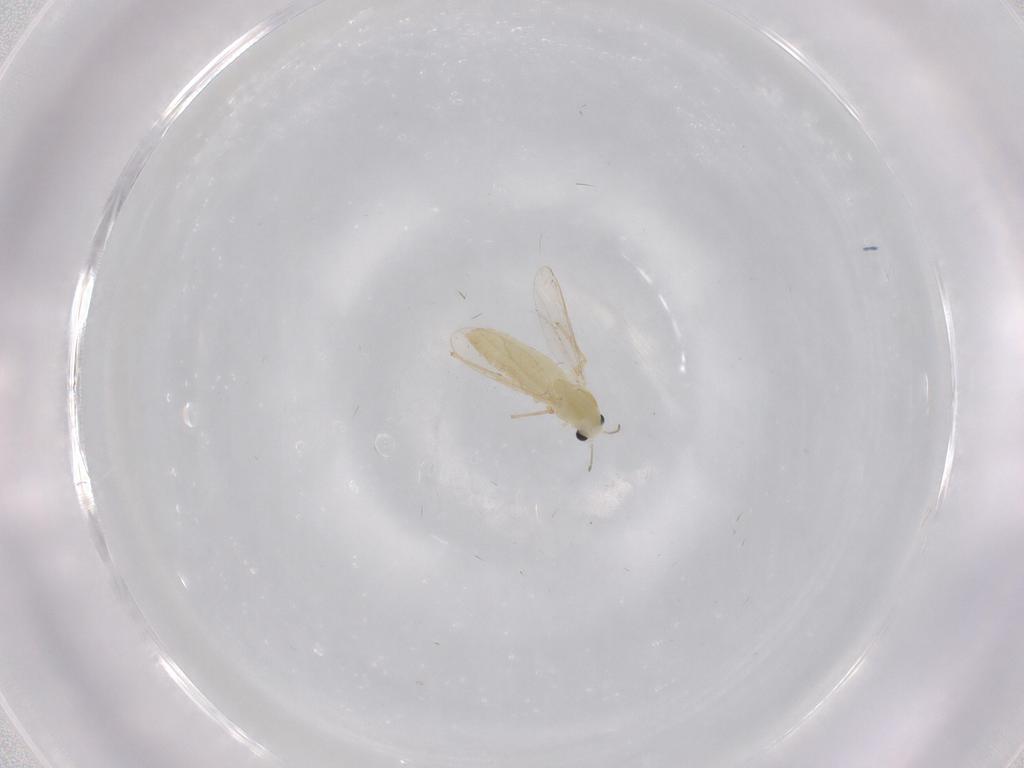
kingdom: Animalia
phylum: Arthropoda
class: Insecta
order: Diptera
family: Chironomidae
